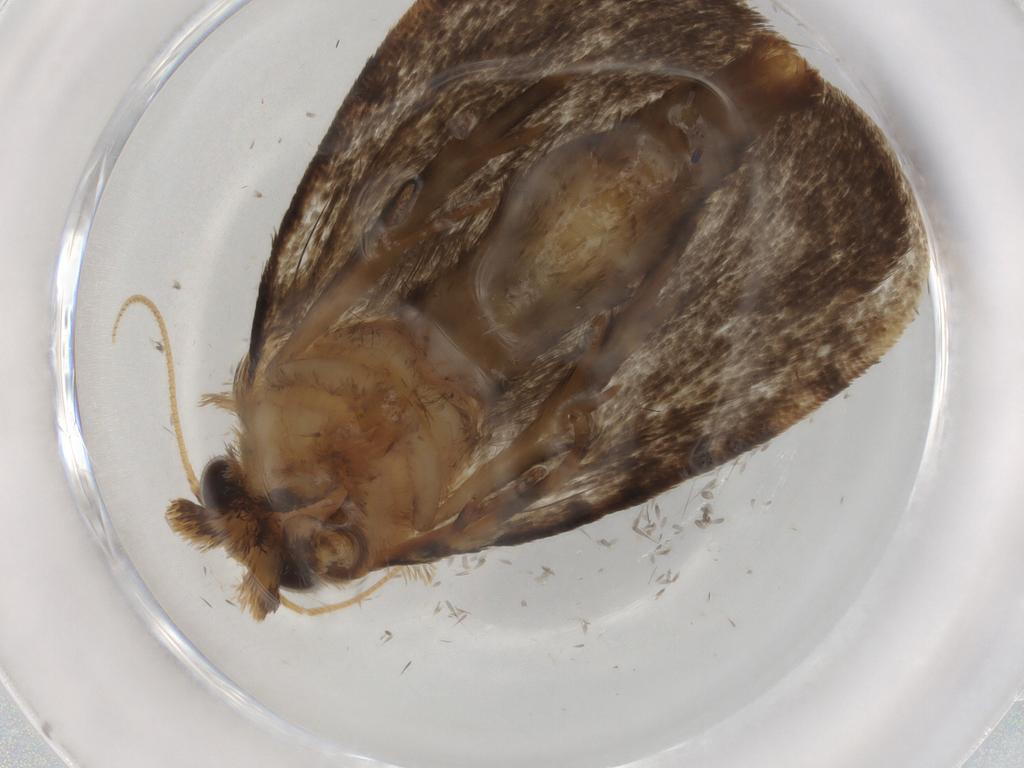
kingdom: Animalia
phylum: Arthropoda
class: Insecta
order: Lepidoptera
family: Tineidae
